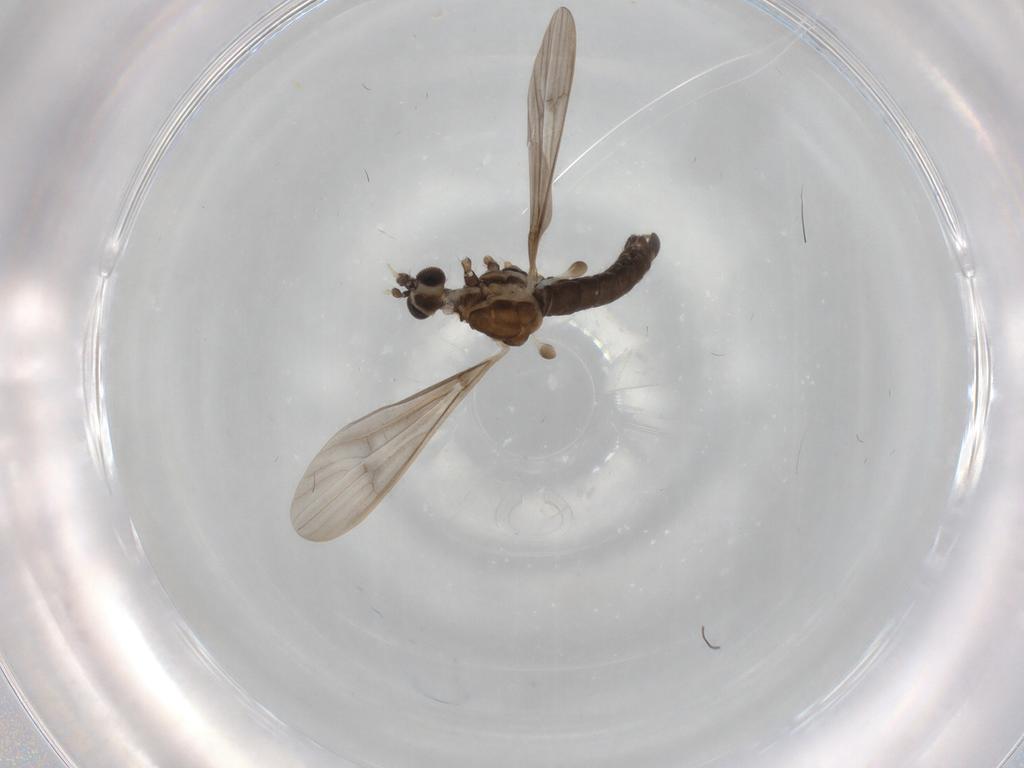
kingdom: Animalia
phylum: Arthropoda
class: Insecta
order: Diptera
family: Limoniidae
